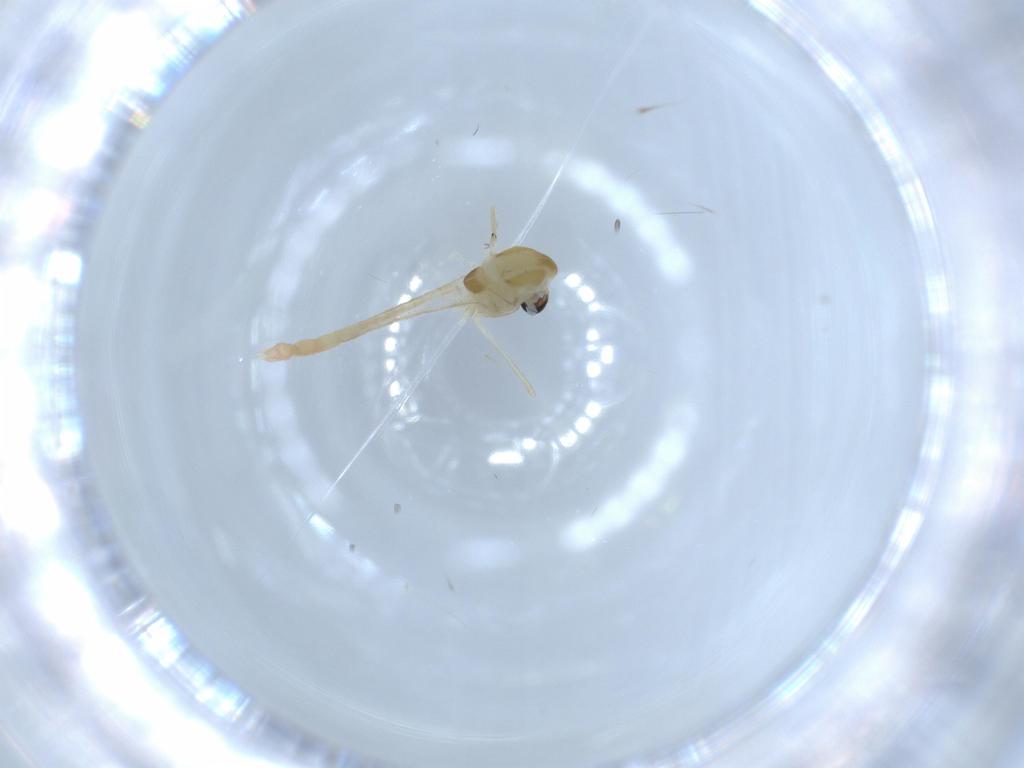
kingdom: Animalia
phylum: Arthropoda
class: Insecta
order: Diptera
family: Chironomidae
